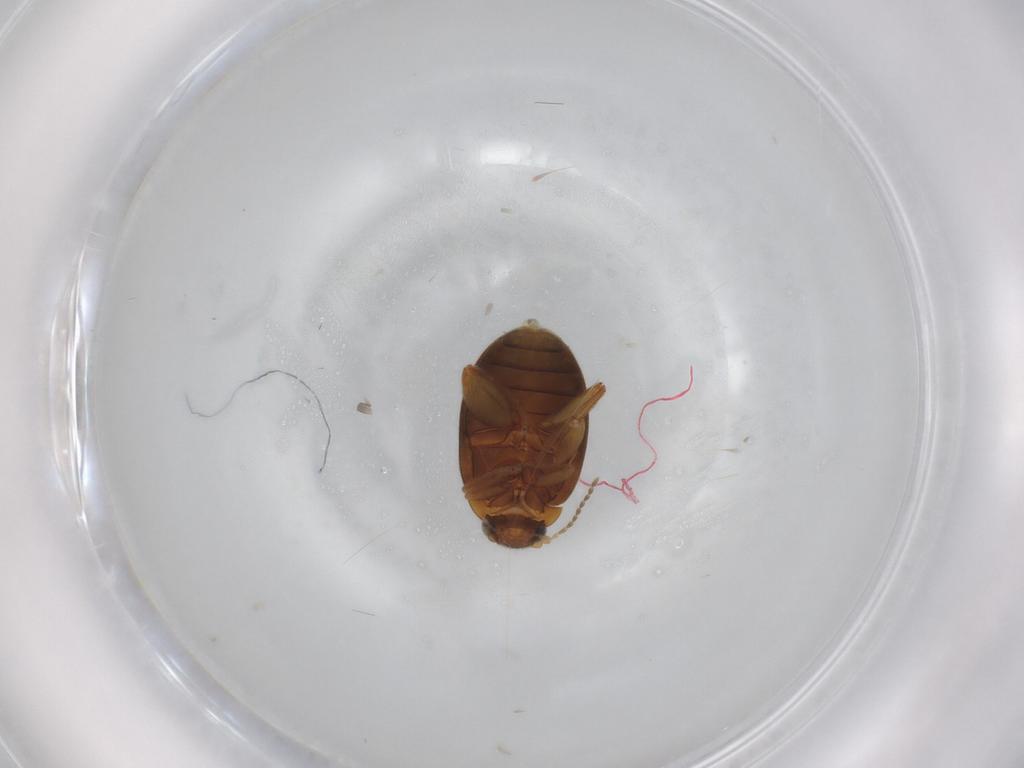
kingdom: Animalia
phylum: Arthropoda
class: Insecta
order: Coleoptera
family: Scirtidae
